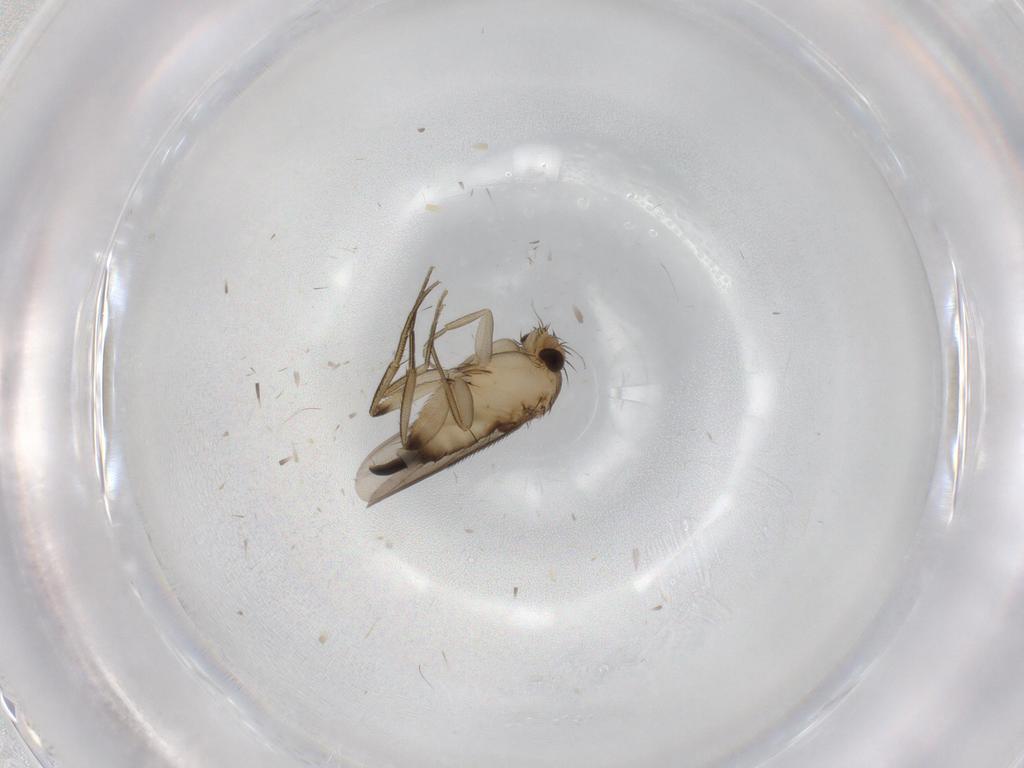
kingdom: Animalia
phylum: Arthropoda
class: Insecta
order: Diptera
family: Phoridae
